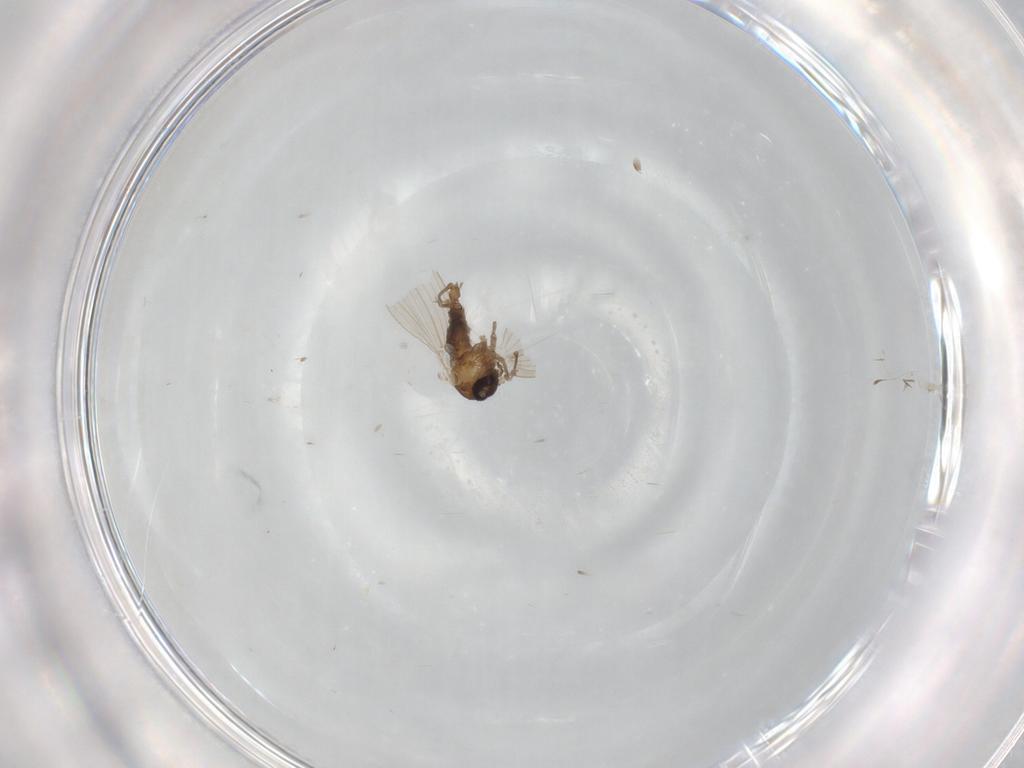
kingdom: Animalia
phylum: Arthropoda
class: Insecta
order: Diptera
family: Psychodidae
